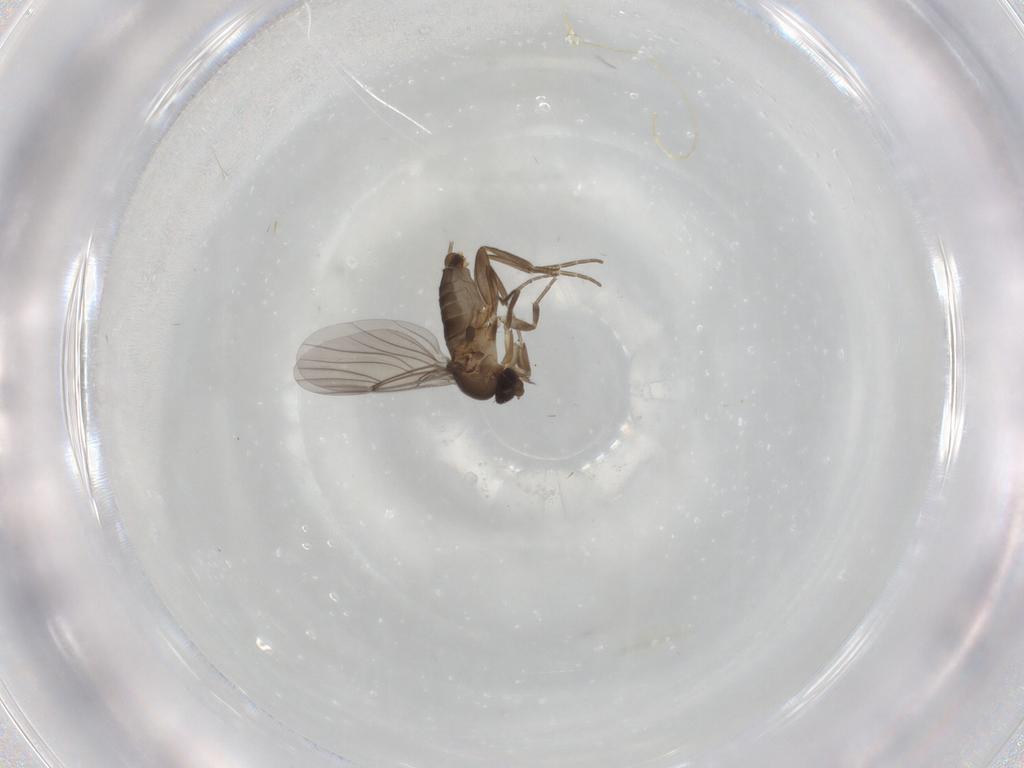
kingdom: Animalia
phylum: Arthropoda
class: Insecta
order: Diptera
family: Phoridae
